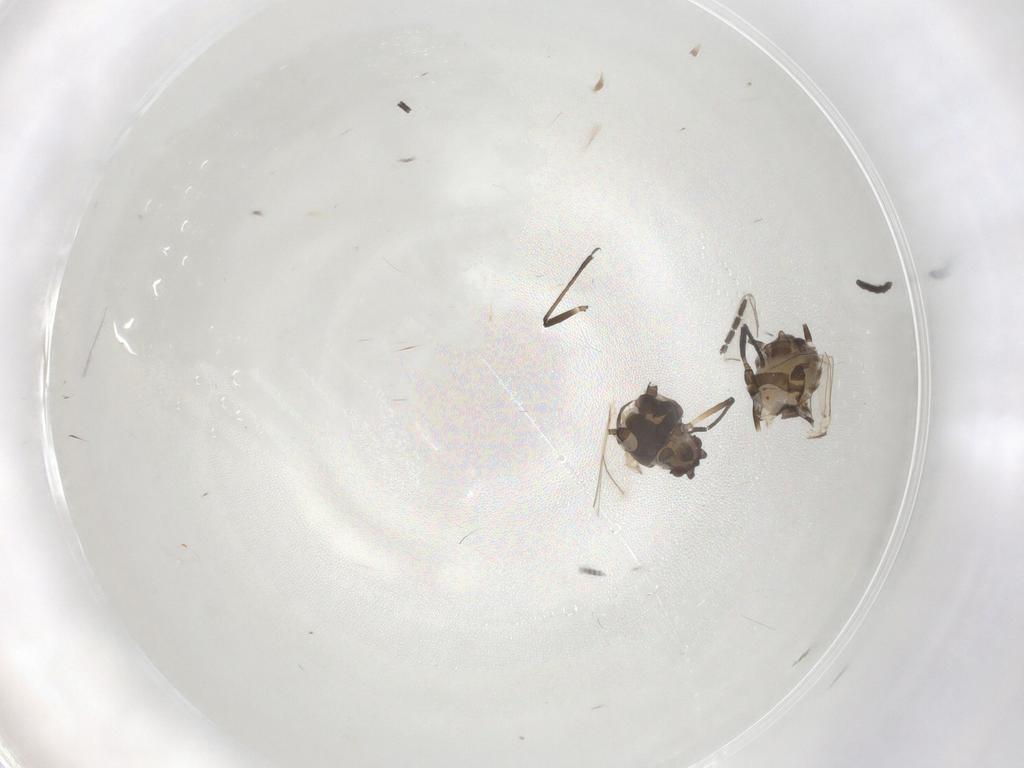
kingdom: Animalia
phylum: Arthropoda
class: Insecta
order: Hemiptera
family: Aphididae
